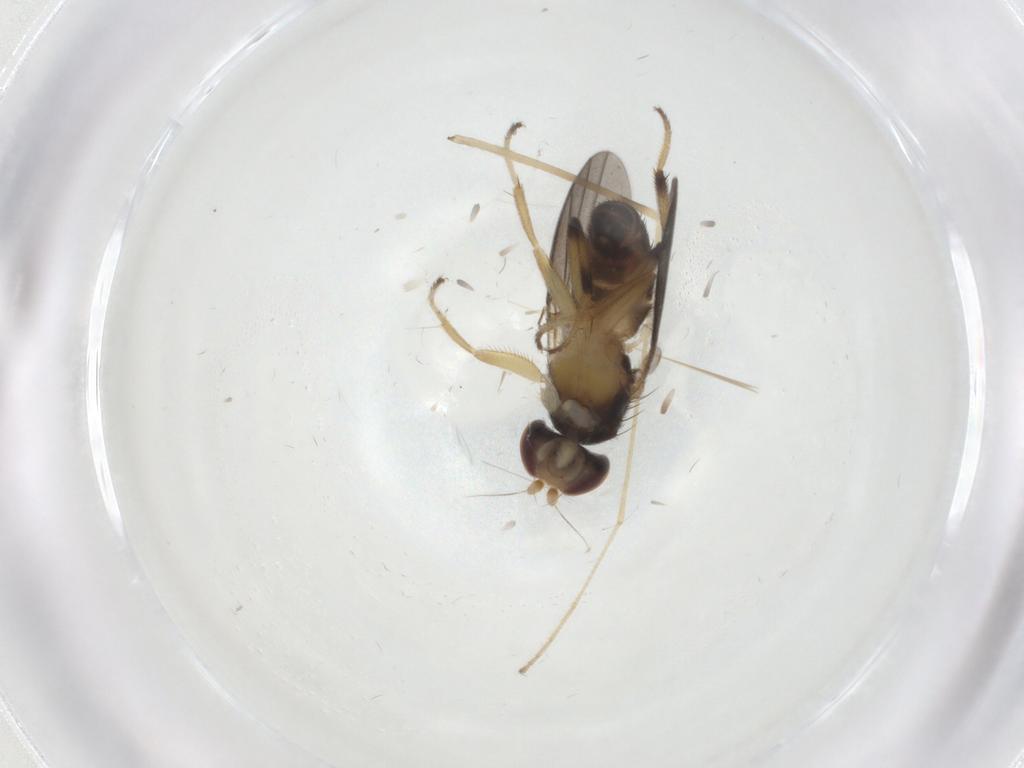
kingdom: Animalia
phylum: Arthropoda
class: Insecta
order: Diptera
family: Clusiidae
